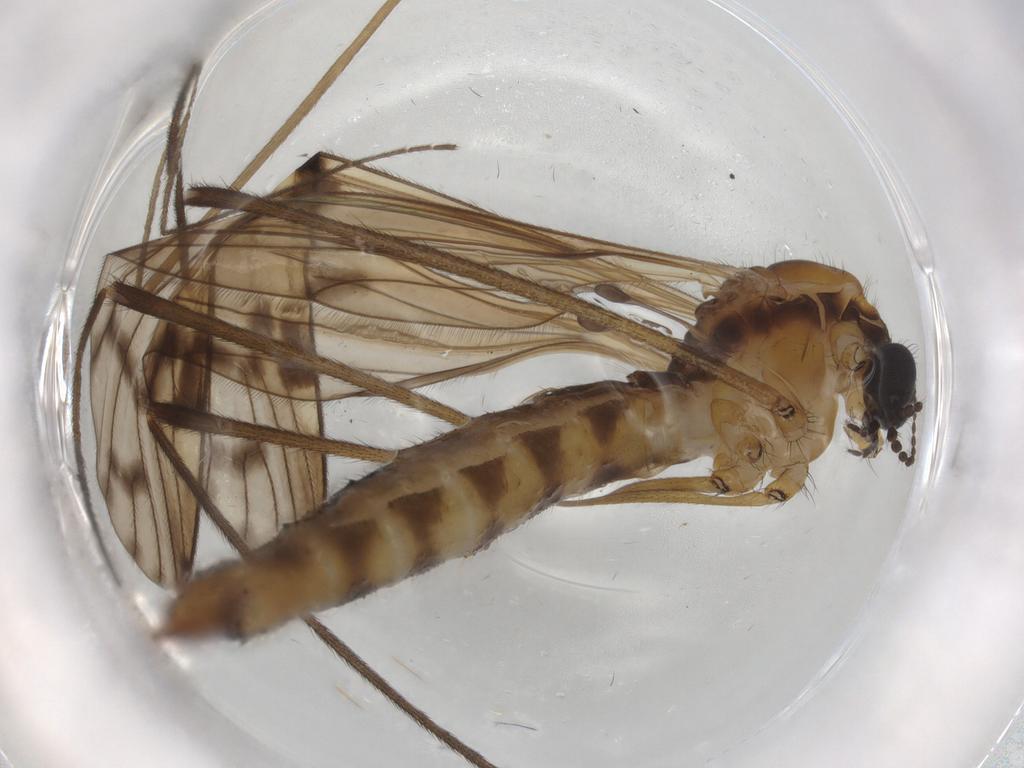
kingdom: Animalia
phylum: Arthropoda
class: Insecta
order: Diptera
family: Limoniidae
